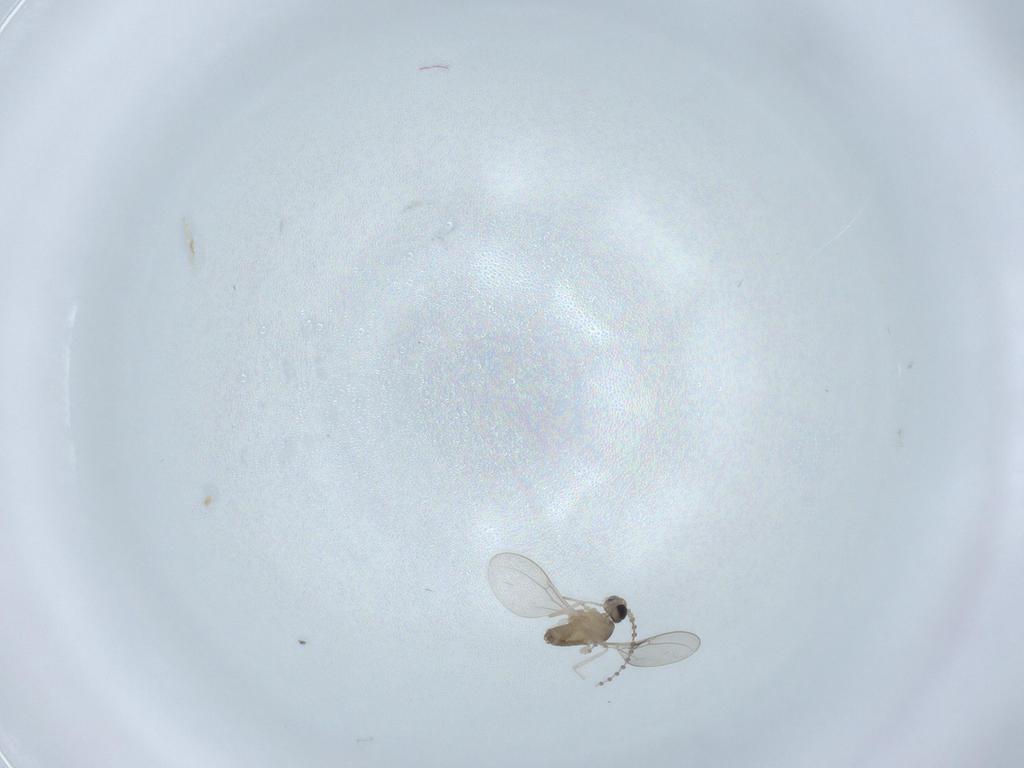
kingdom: Animalia
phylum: Arthropoda
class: Insecta
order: Diptera
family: Cecidomyiidae
